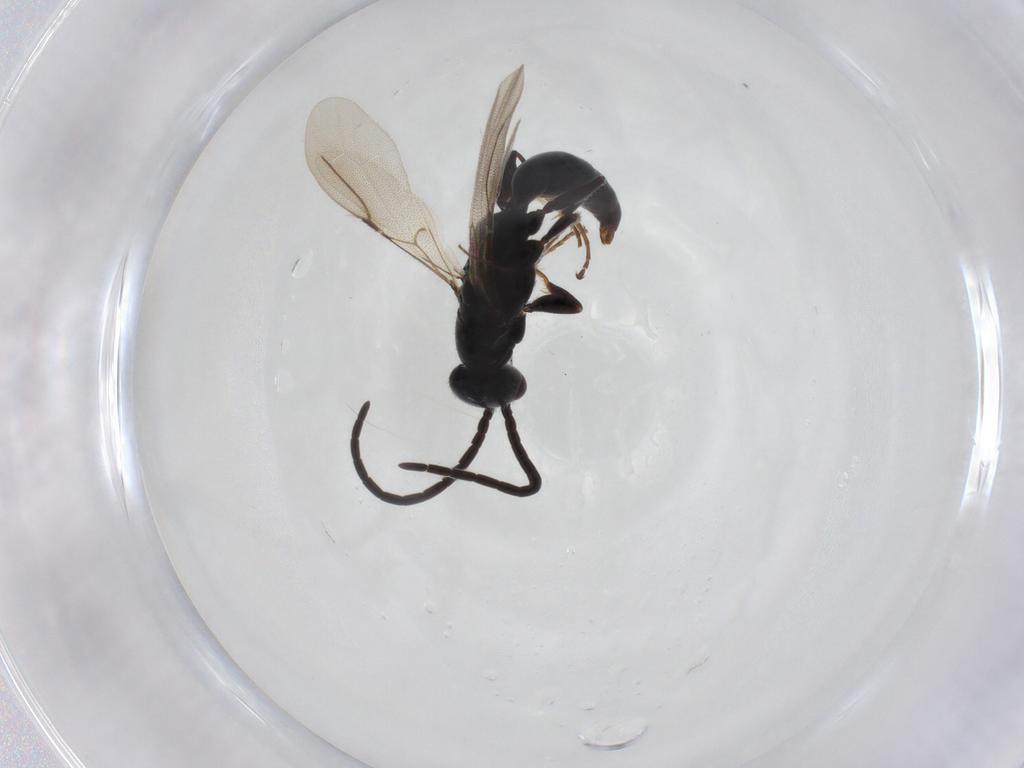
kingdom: Animalia
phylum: Arthropoda
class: Insecta
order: Hymenoptera
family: Bethylidae
